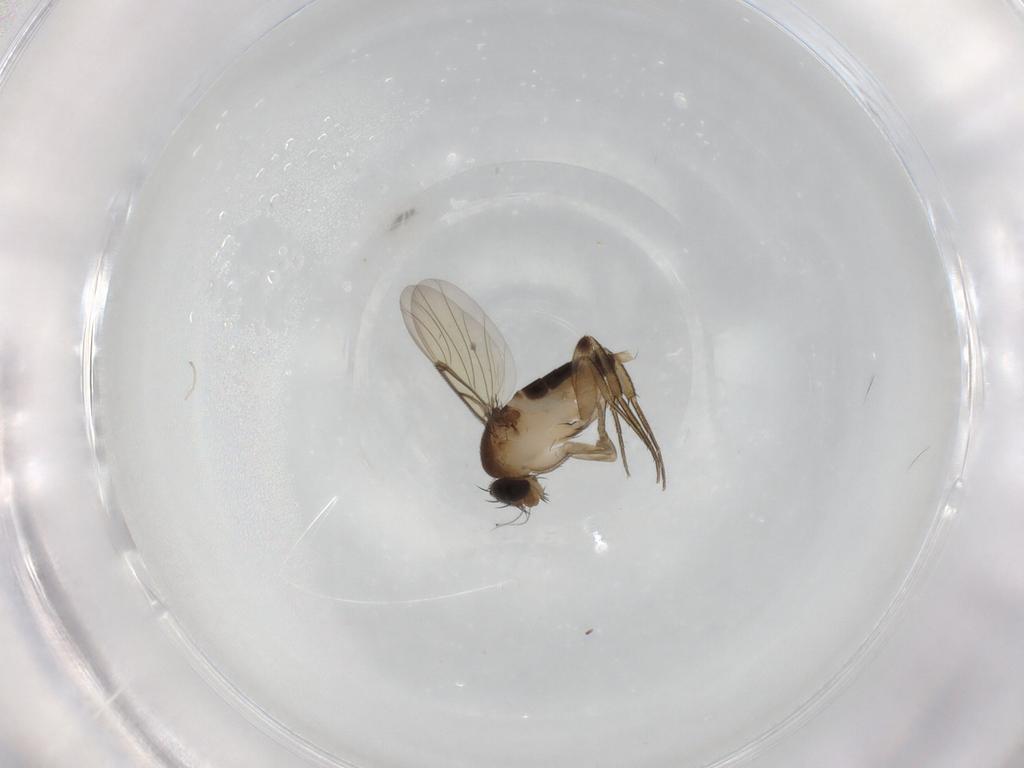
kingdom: Animalia
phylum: Arthropoda
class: Insecta
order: Diptera
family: Phoridae
